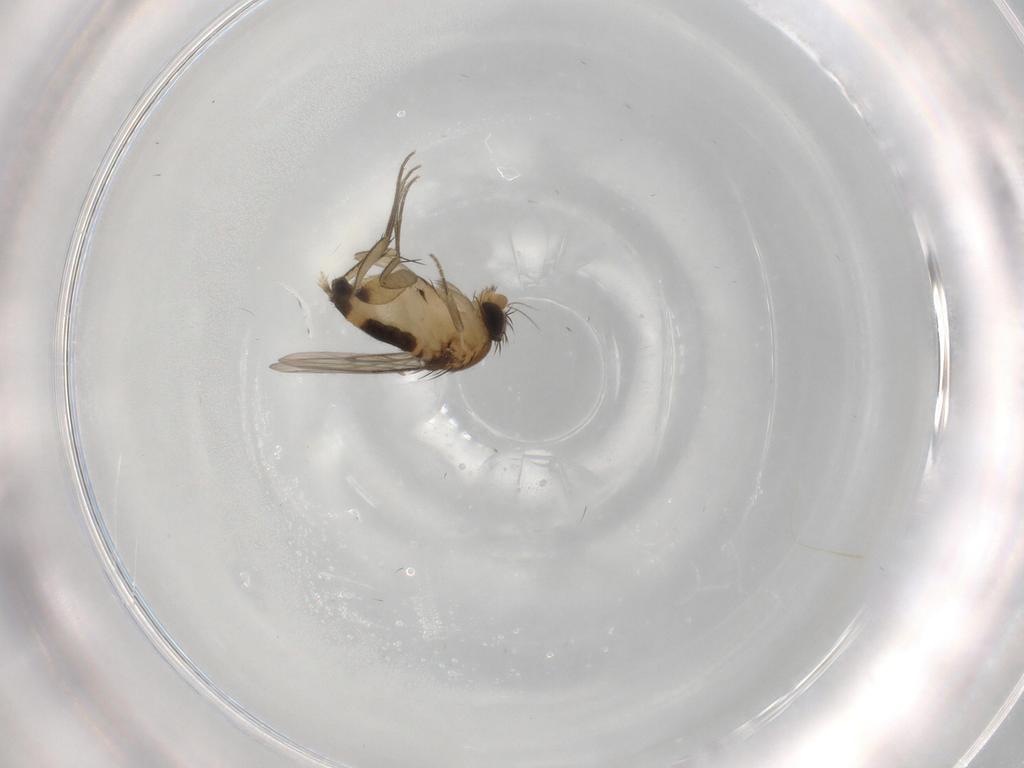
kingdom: Animalia
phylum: Arthropoda
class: Insecta
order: Diptera
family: Phoridae
